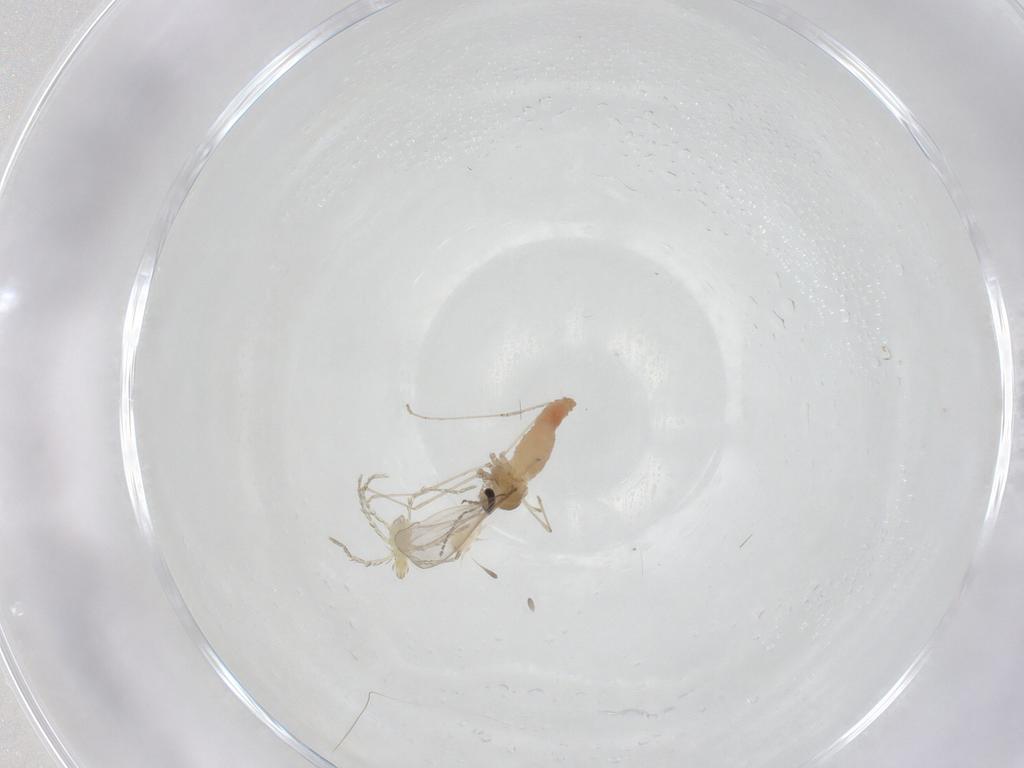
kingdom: Animalia
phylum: Arthropoda
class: Insecta
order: Diptera
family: Cecidomyiidae
